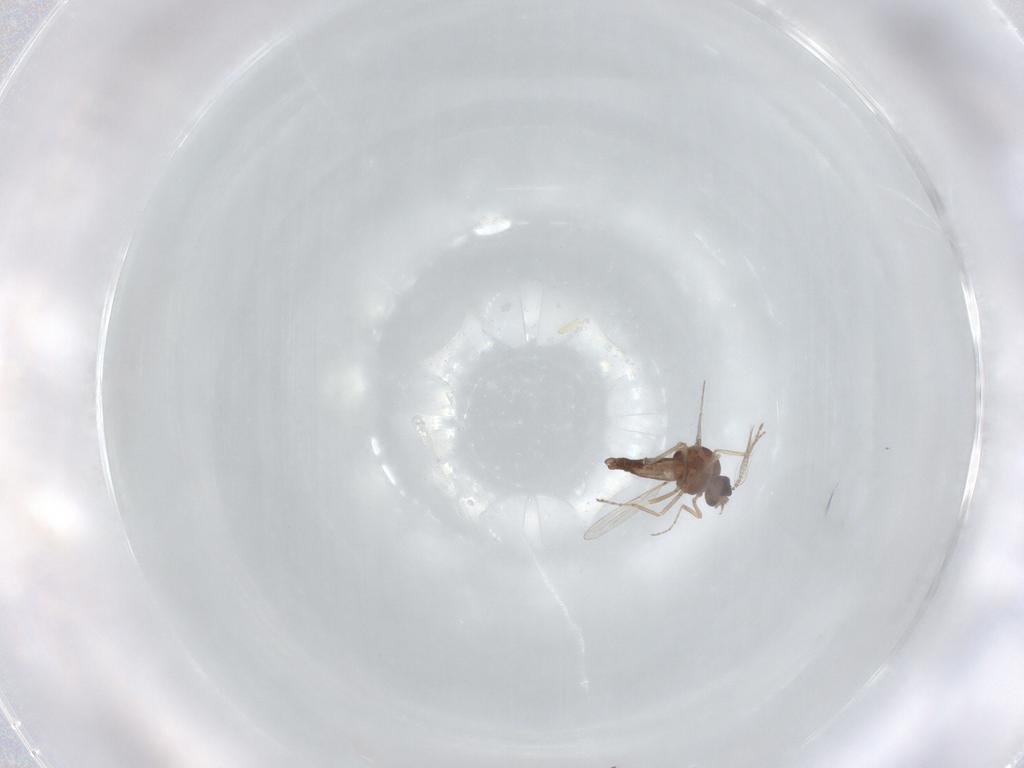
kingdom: Animalia
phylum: Arthropoda
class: Insecta
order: Diptera
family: Ceratopogonidae
